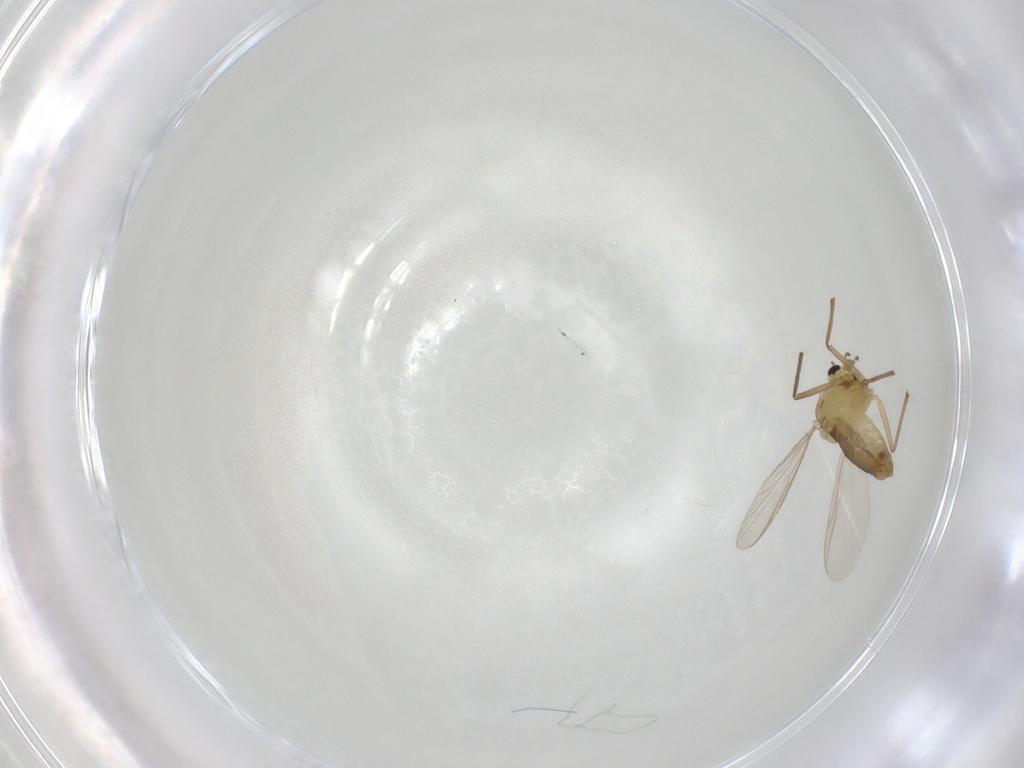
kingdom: Animalia
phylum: Arthropoda
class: Insecta
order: Diptera
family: Chironomidae
